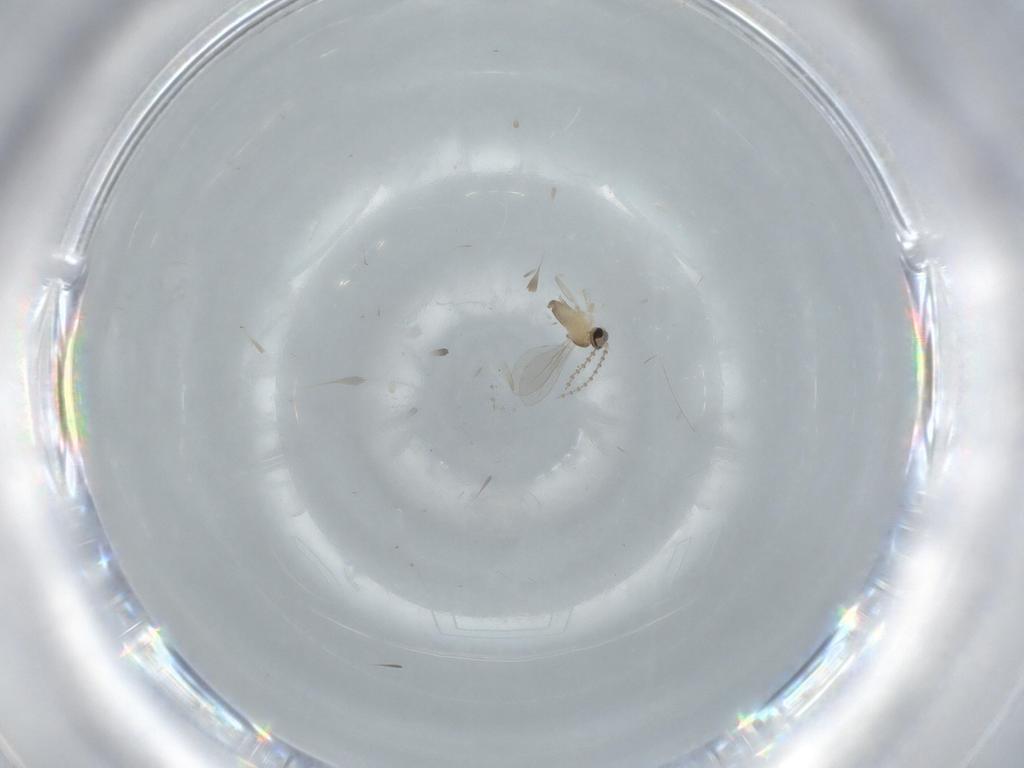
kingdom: Animalia
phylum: Arthropoda
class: Insecta
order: Diptera
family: Cecidomyiidae
